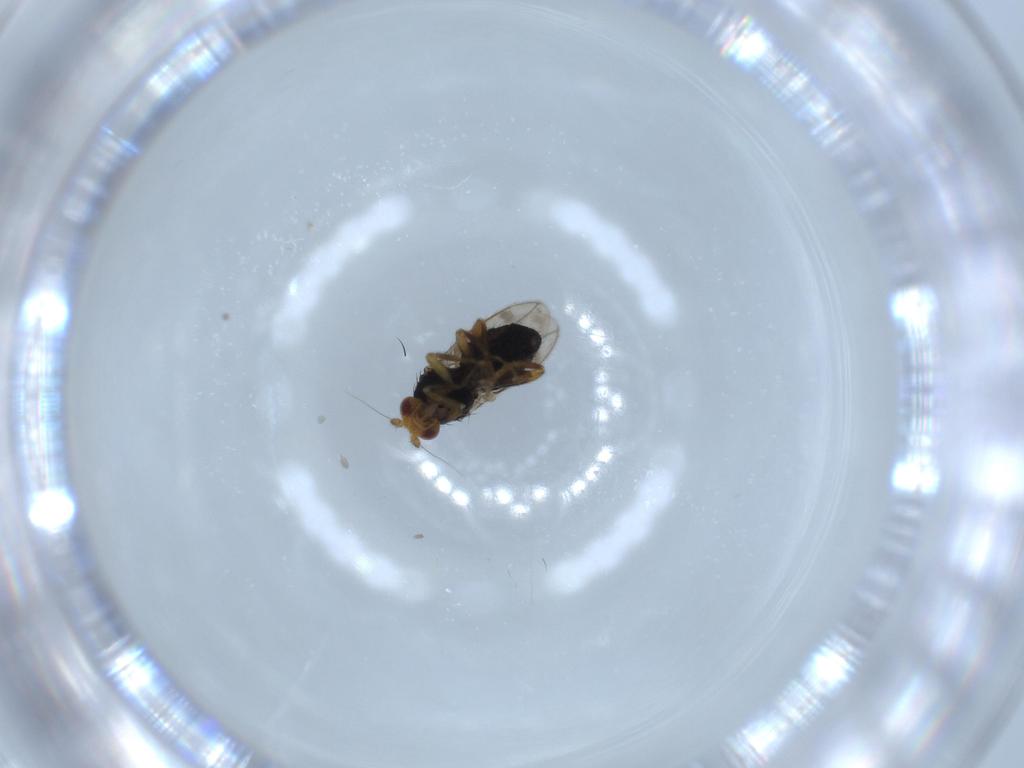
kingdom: Animalia
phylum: Arthropoda
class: Insecta
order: Diptera
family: Sphaeroceridae
